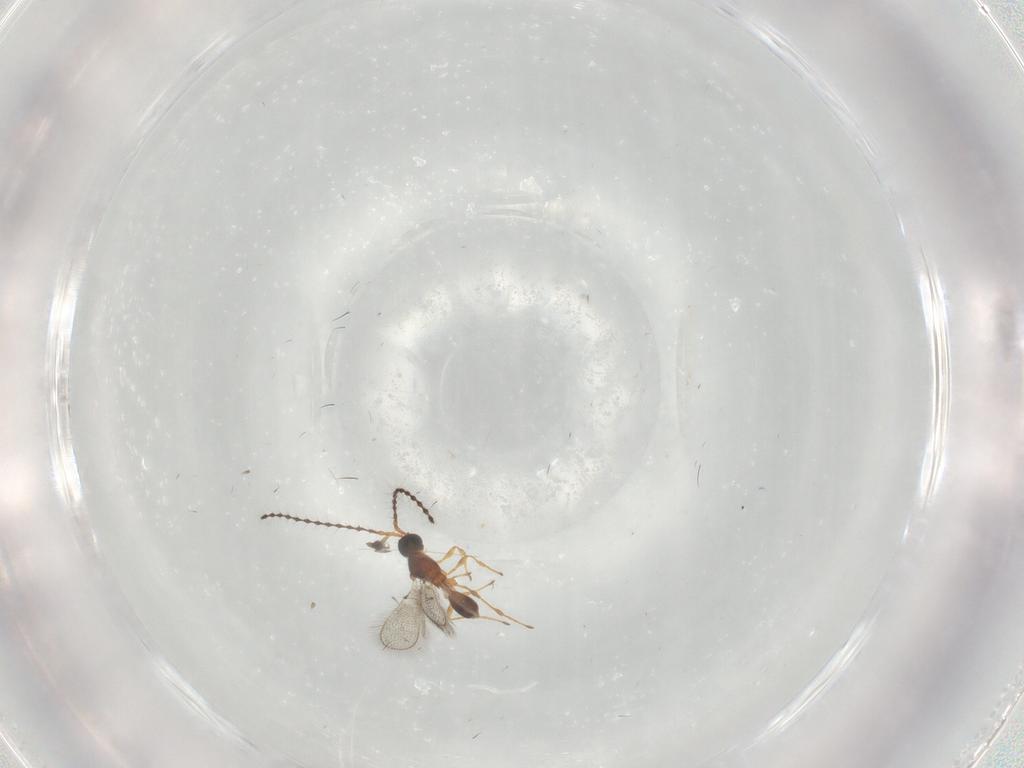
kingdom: Animalia
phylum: Arthropoda
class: Insecta
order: Hymenoptera
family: Diapriidae
